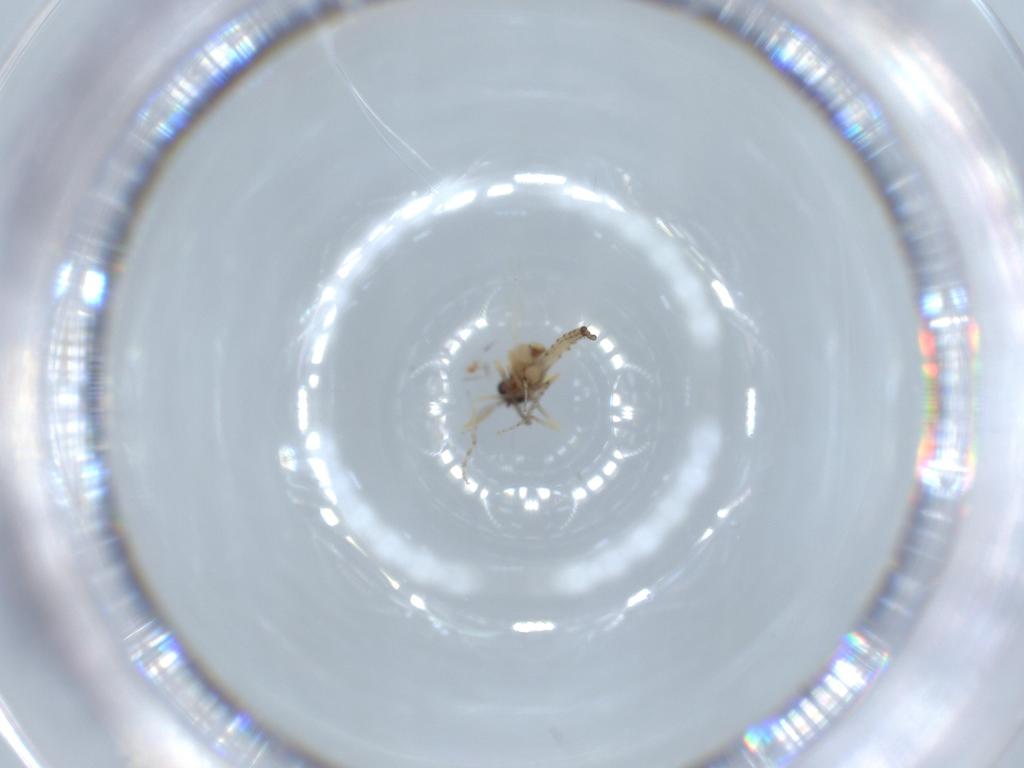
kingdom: Animalia
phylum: Arthropoda
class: Insecta
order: Diptera
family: Ceratopogonidae
